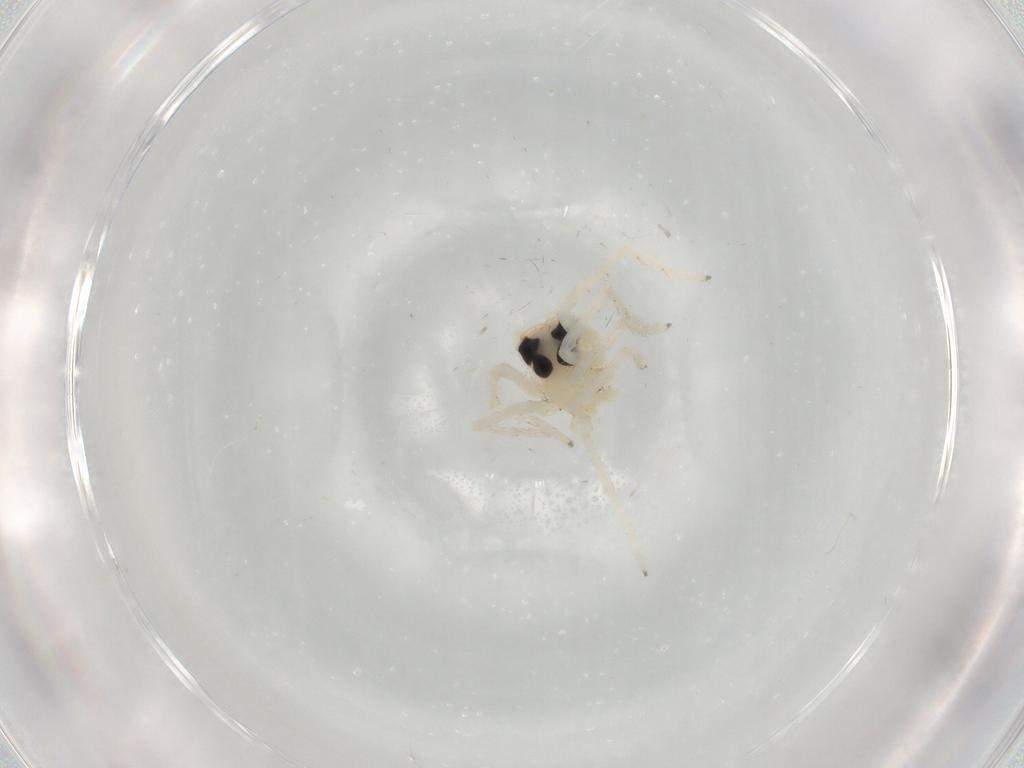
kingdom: Animalia
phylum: Arthropoda
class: Arachnida
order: Araneae
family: Salticidae
